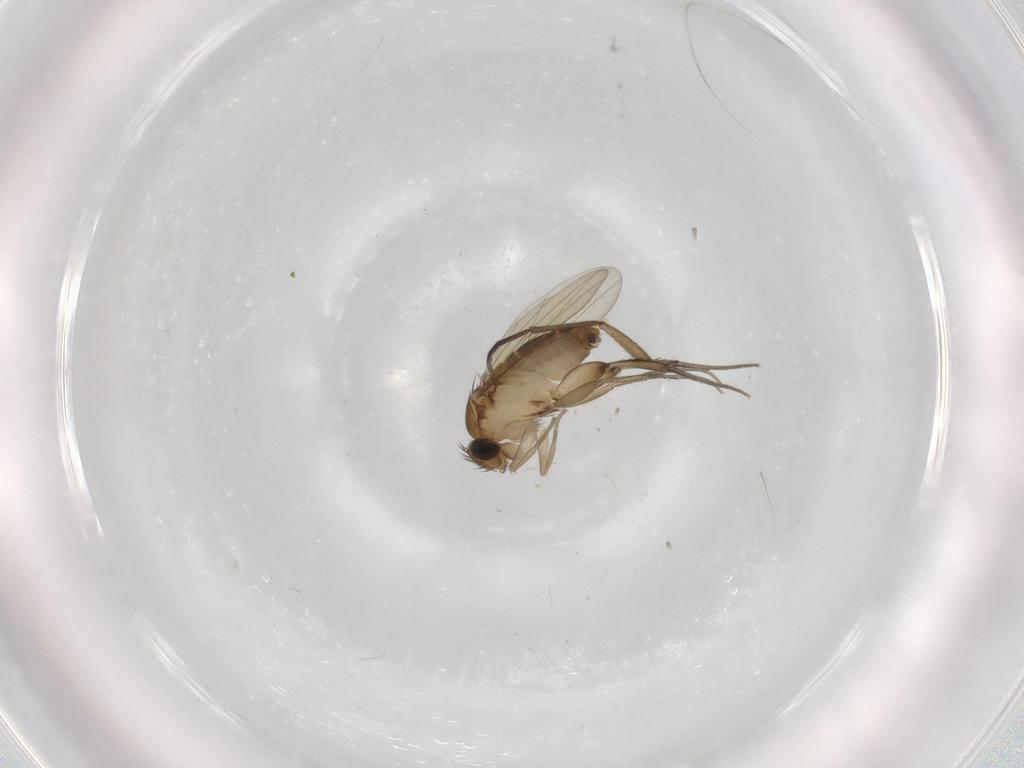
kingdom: Animalia
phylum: Arthropoda
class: Insecta
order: Diptera
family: Phoridae
